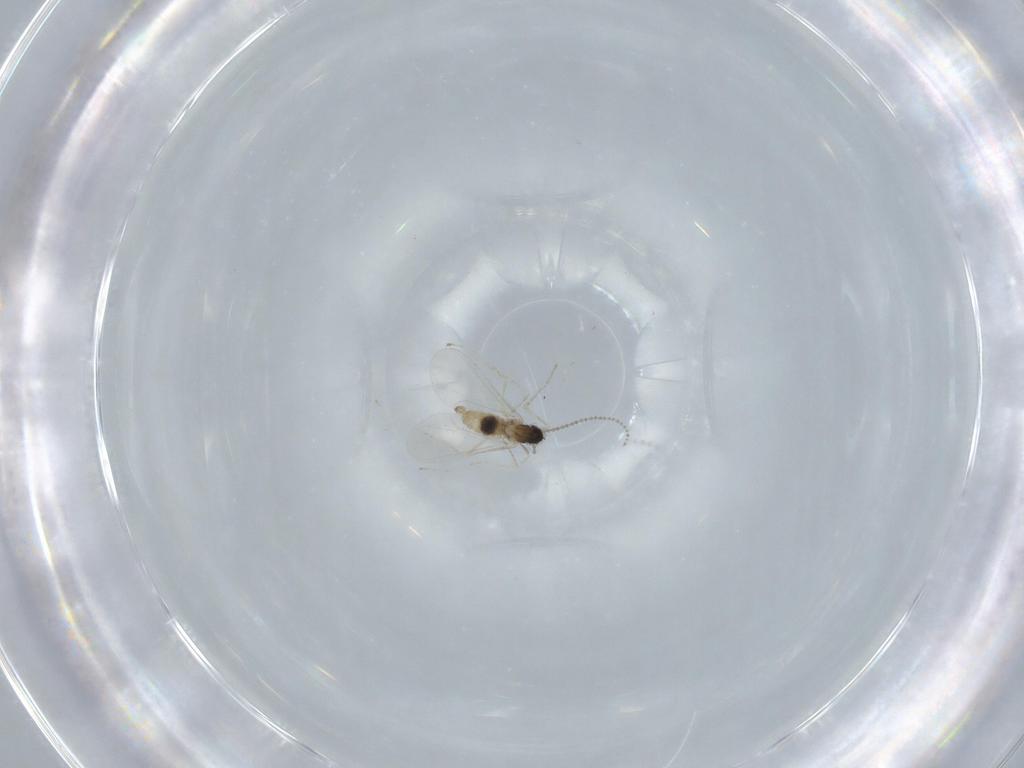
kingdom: Animalia
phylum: Arthropoda
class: Insecta
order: Diptera
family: Cecidomyiidae
